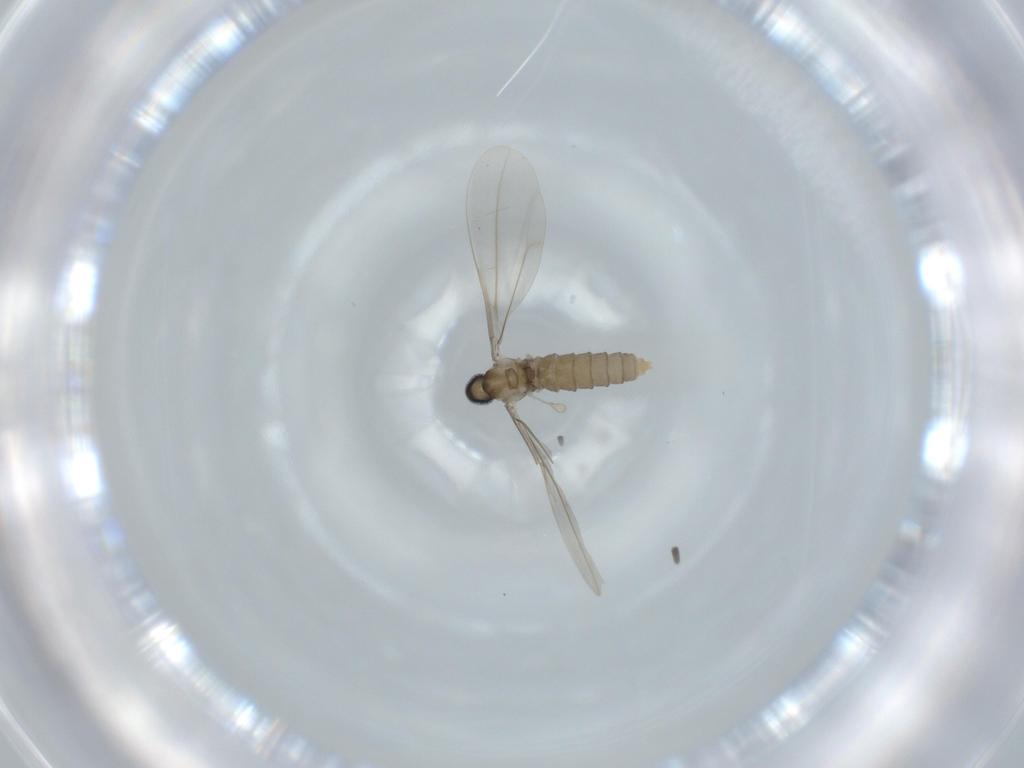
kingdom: Animalia
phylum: Arthropoda
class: Insecta
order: Diptera
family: Cecidomyiidae
